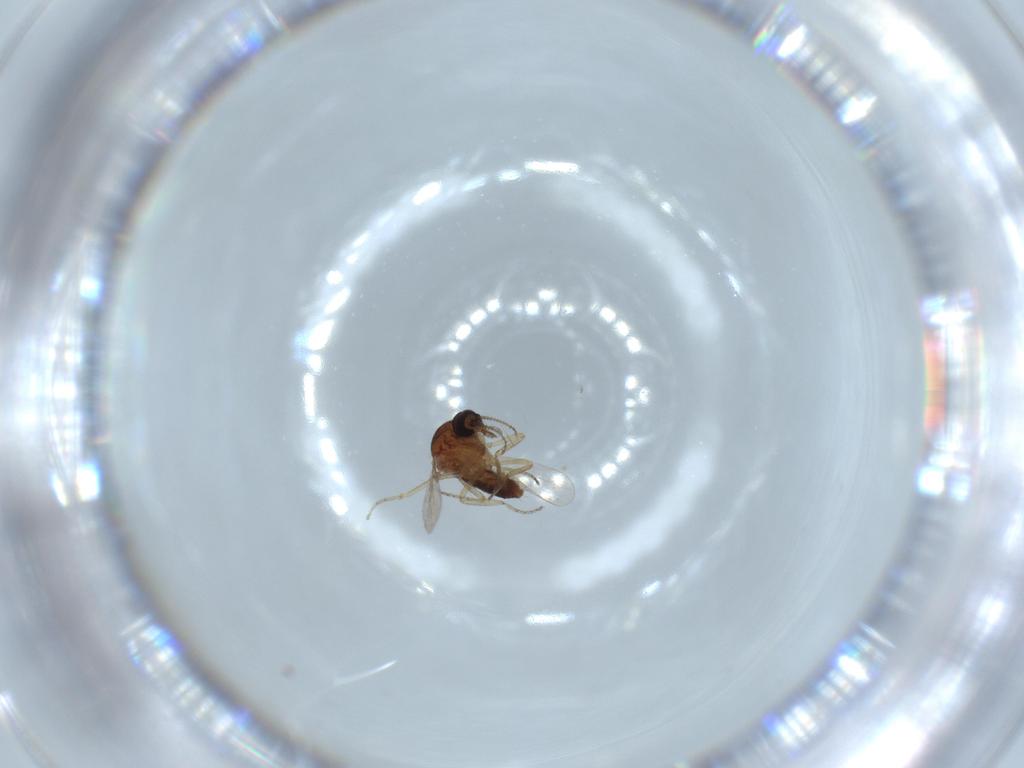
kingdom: Animalia
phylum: Arthropoda
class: Insecta
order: Diptera
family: Ceratopogonidae
